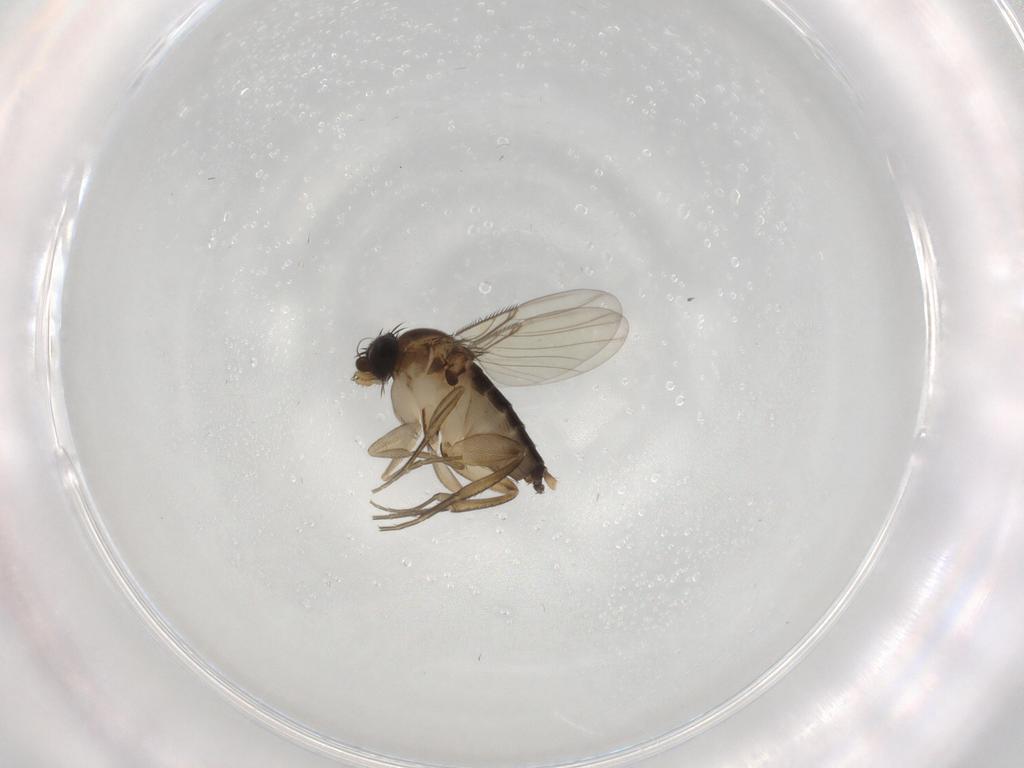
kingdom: Animalia
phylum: Arthropoda
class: Insecta
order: Diptera
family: Phoridae
